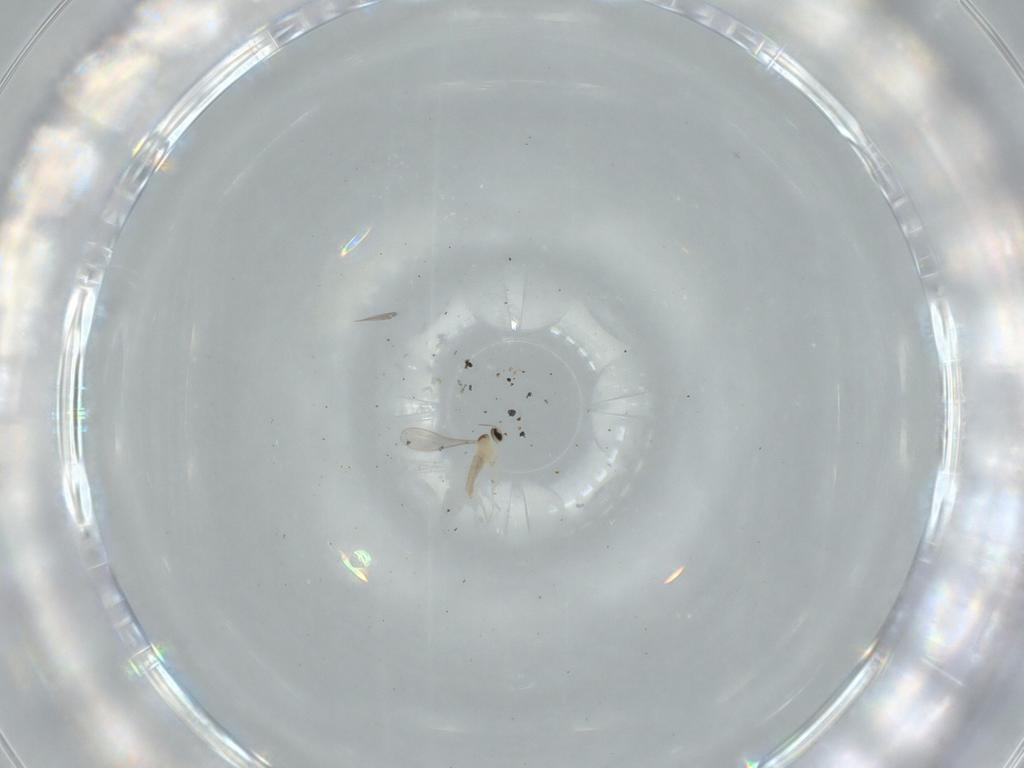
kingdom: Animalia
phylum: Arthropoda
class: Insecta
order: Diptera
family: Hybotidae
